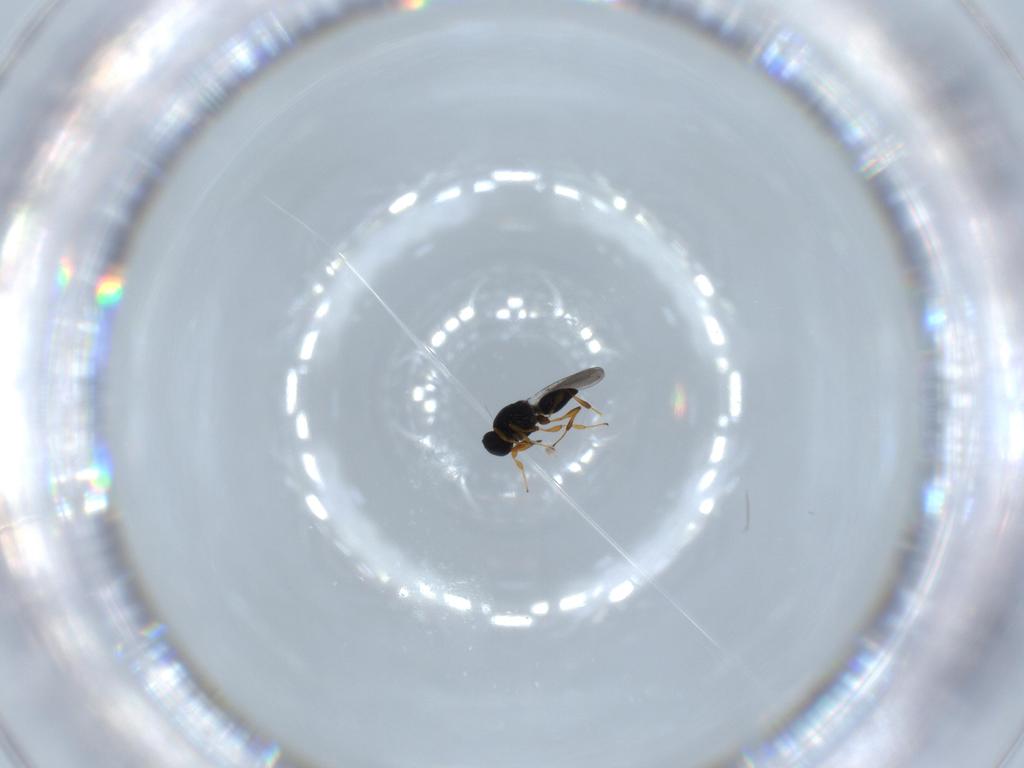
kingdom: Animalia
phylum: Arthropoda
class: Insecta
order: Hymenoptera
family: Platygastridae
